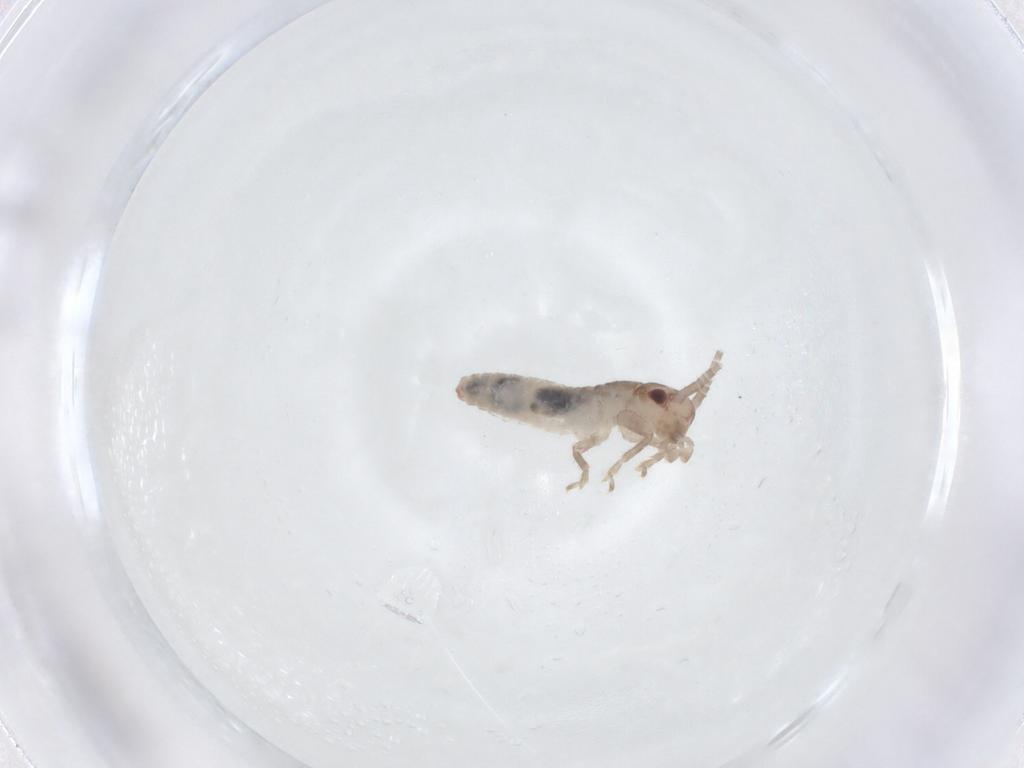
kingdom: Animalia
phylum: Arthropoda
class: Insecta
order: Orthoptera
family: Mogoplistidae
